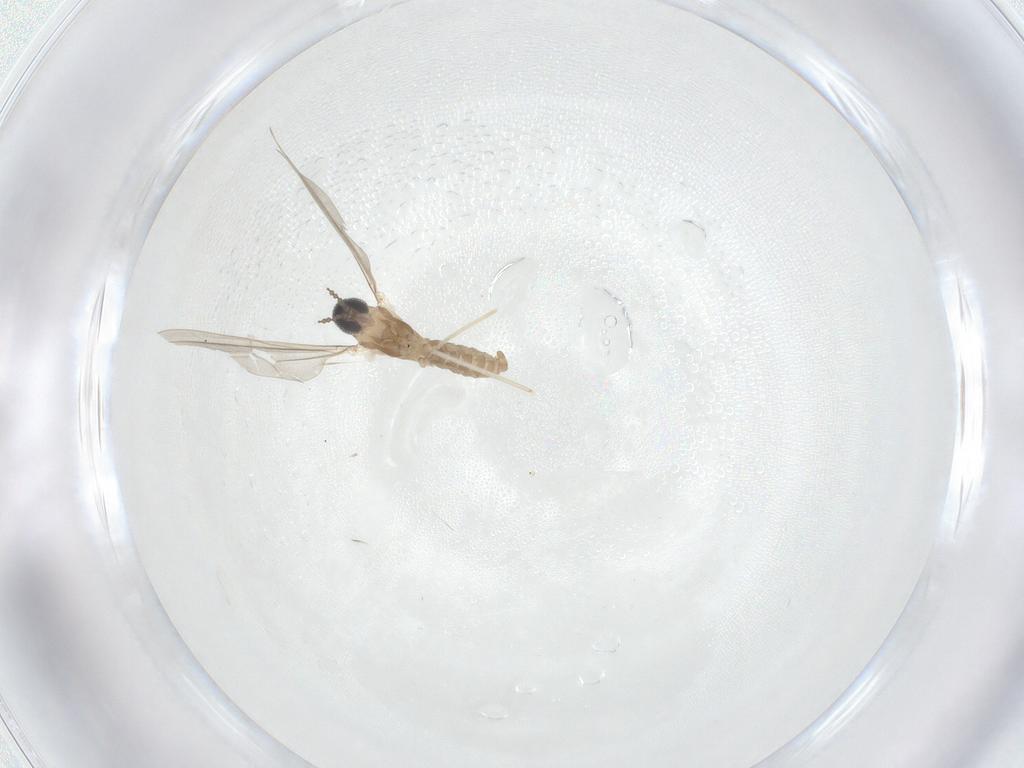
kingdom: Animalia
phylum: Arthropoda
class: Insecta
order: Diptera
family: Asilidae
